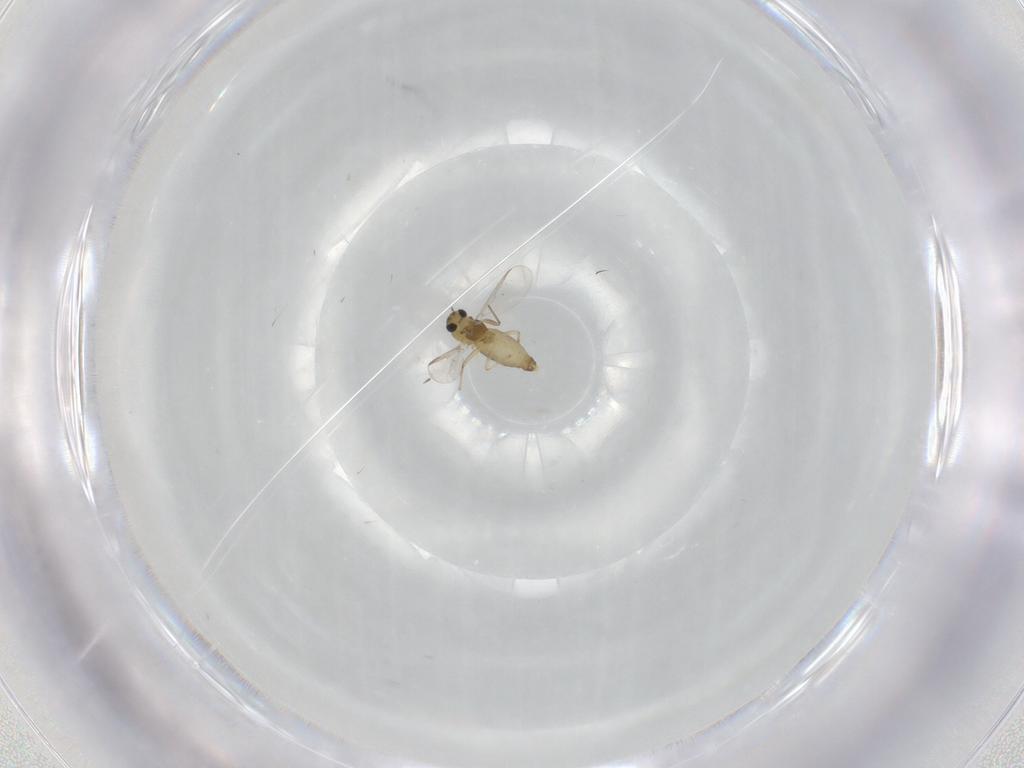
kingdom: Animalia
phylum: Arthropoda
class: Insecta
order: Diptera
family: Chironomidae
